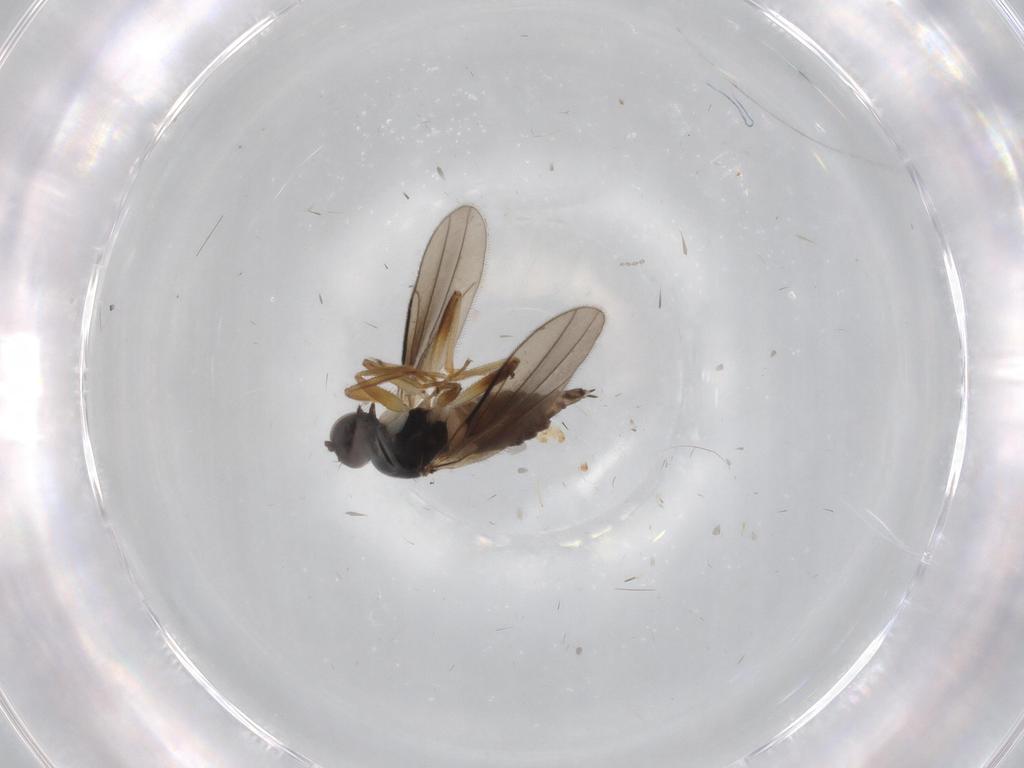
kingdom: Animalia
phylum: Arthropoda
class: Insecta
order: Diptera
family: Hybotidae
